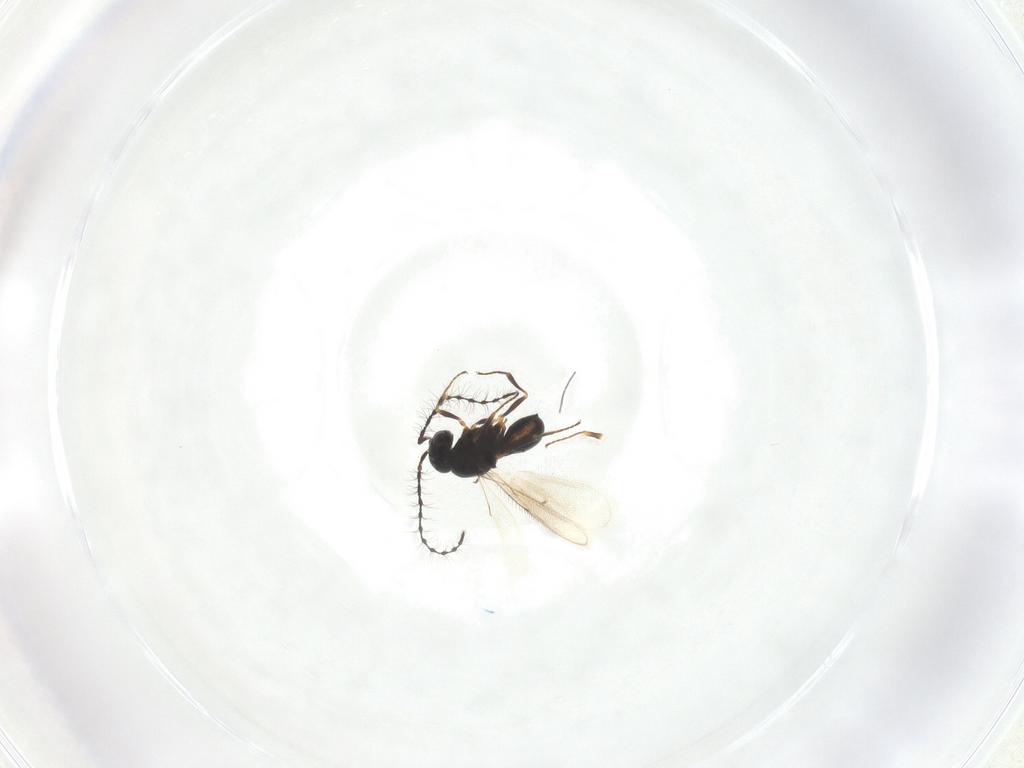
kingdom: Animalia
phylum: Arthropoda
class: Insecta
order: Hymenoptera
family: Scelionidae
